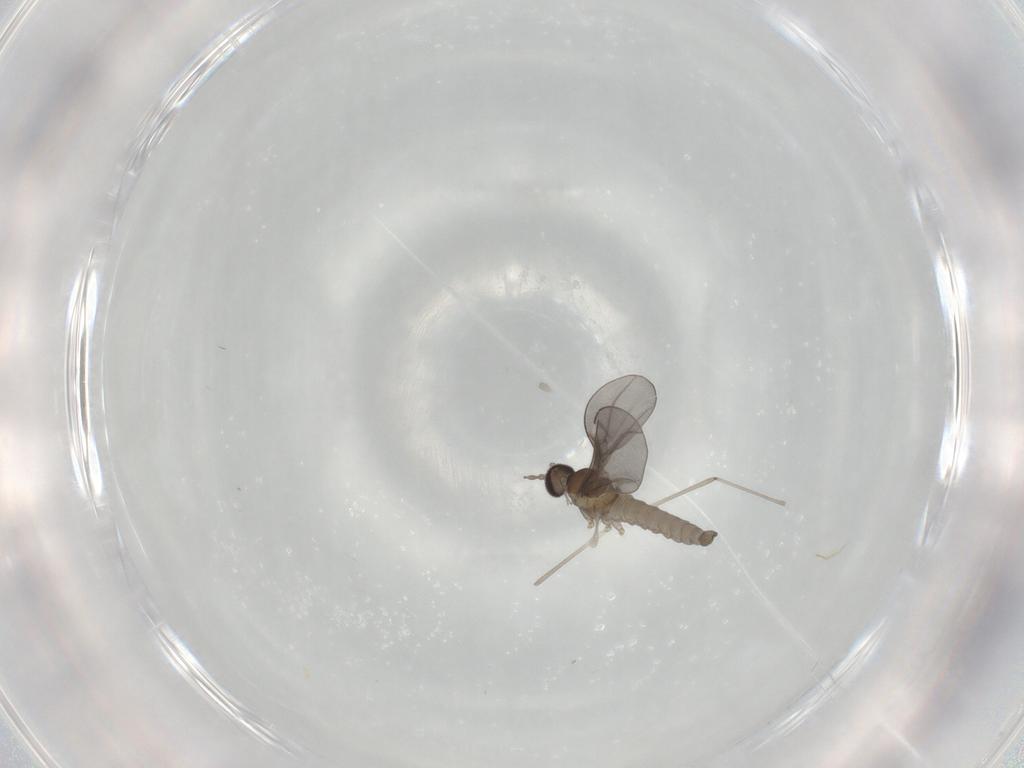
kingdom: Animalia
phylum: Arthropoda
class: Insecta
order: Diptera
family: Cecidomyiidae
